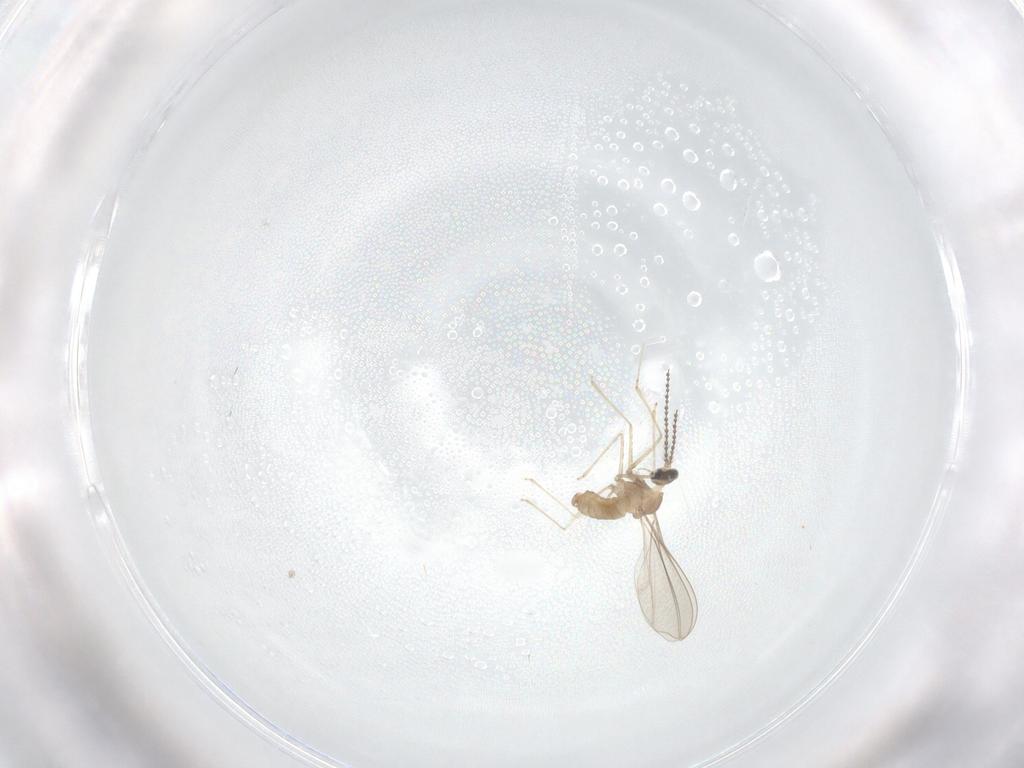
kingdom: Animalia
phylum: Arthropoda
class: Insecta
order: Diptera
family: Cecidomyiidae
